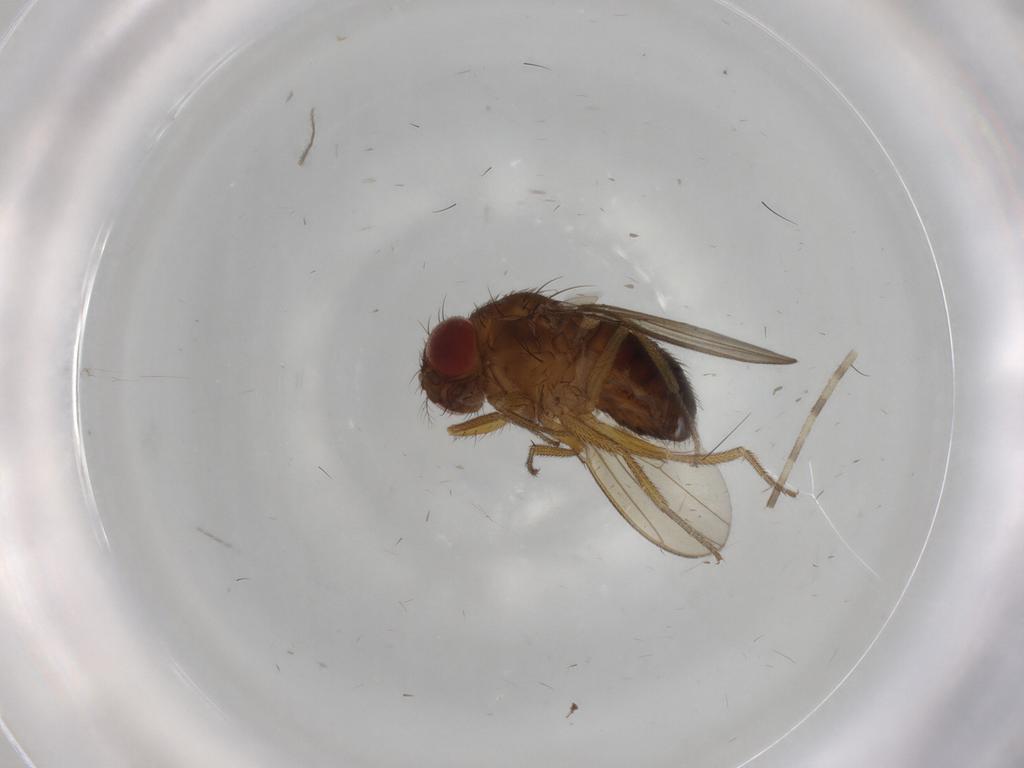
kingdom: Animalia
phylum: Arthropoda
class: Insecta
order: Diptera
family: Drosophilidae
